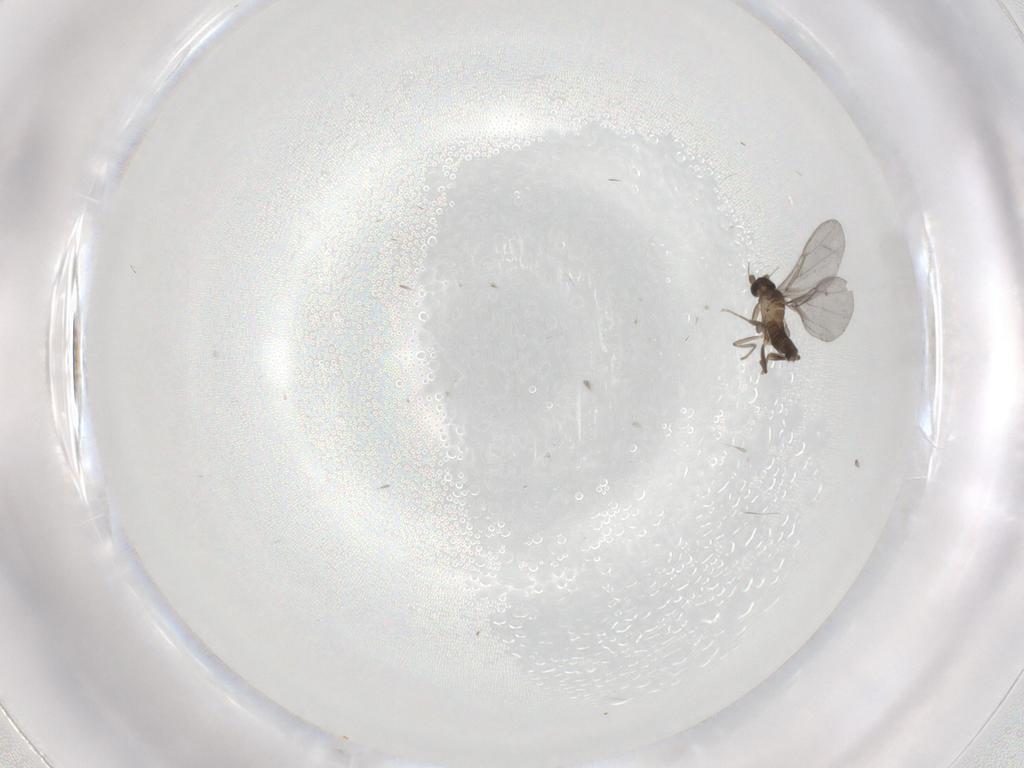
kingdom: Animalia
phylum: Arthropoda
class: Insecta
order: Diptera
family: Phoridae
